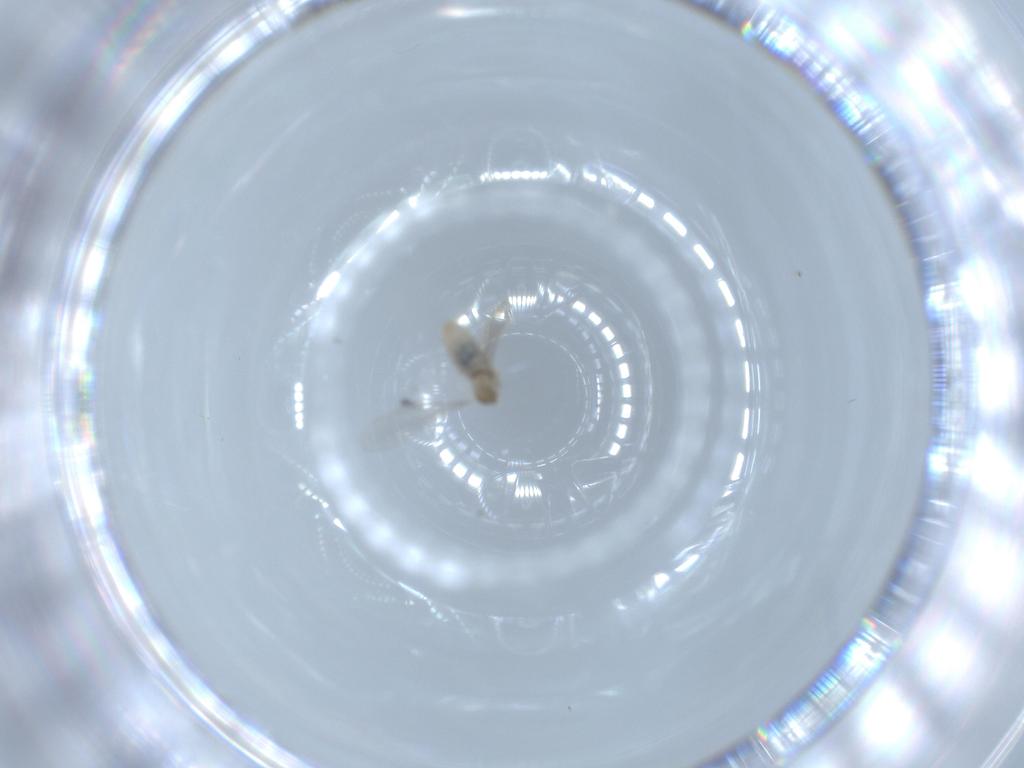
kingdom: Animalia
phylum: Arthropoda
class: Insecta
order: Diptera
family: Cecidomyiidae
